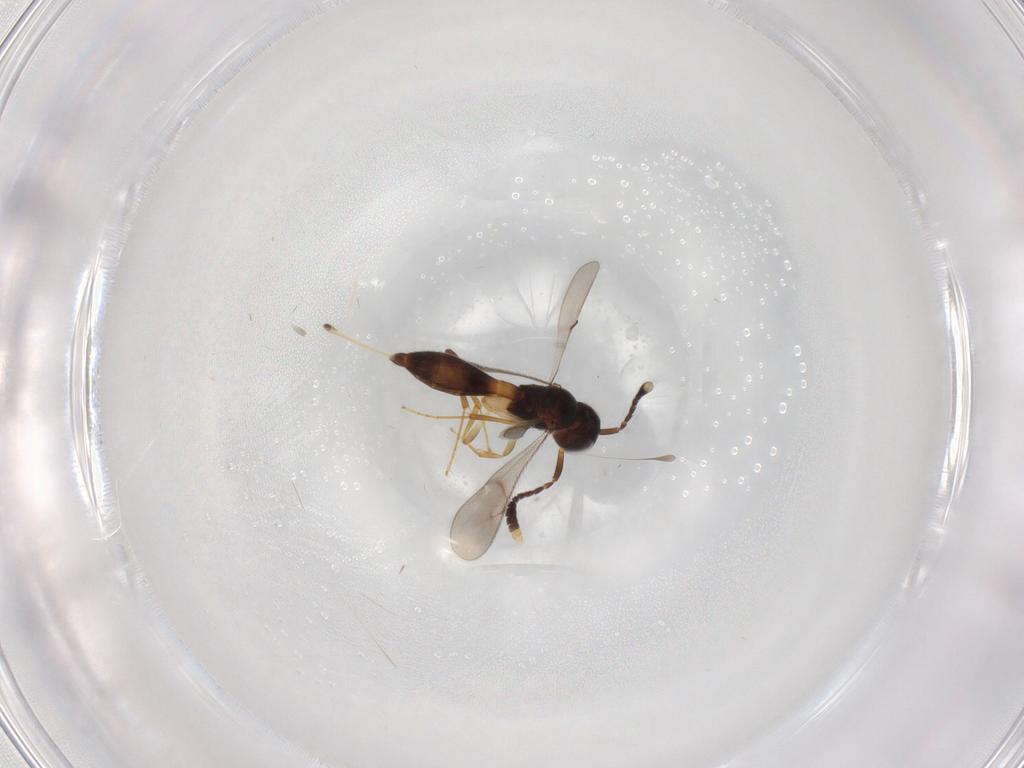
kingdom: Animalia
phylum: Arthropoda
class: Insecta
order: Hymenoptera
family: Scelionidae
